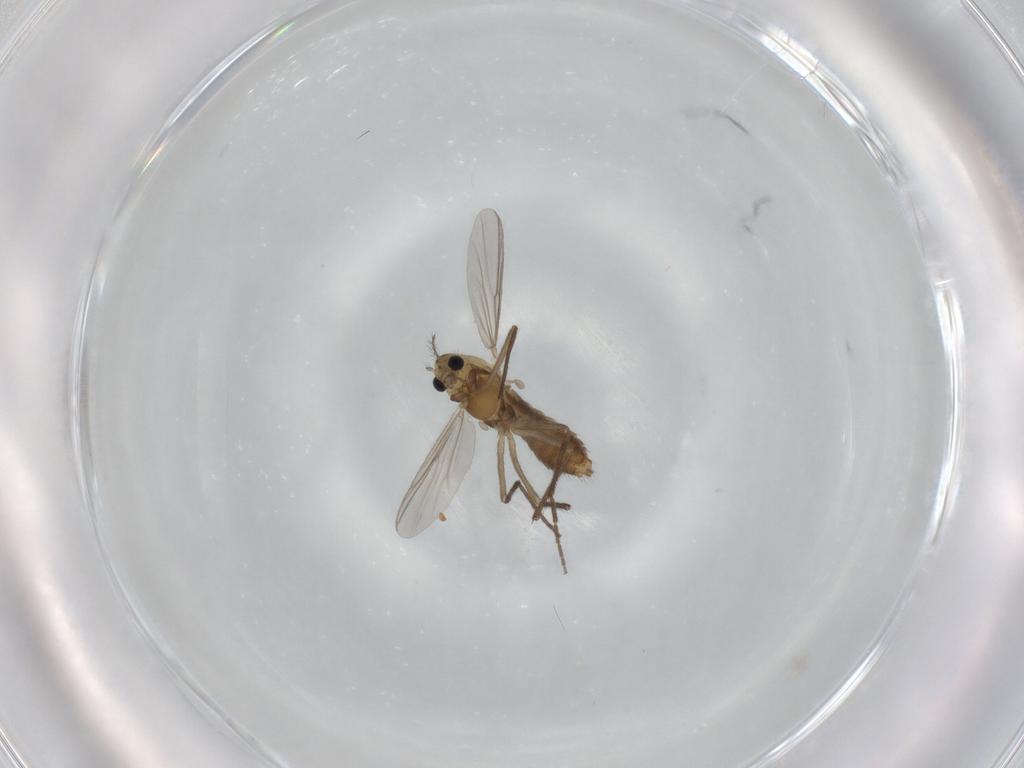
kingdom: Animalia
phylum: Arthropoda
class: Insecta
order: Diptera
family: Chironomidae
